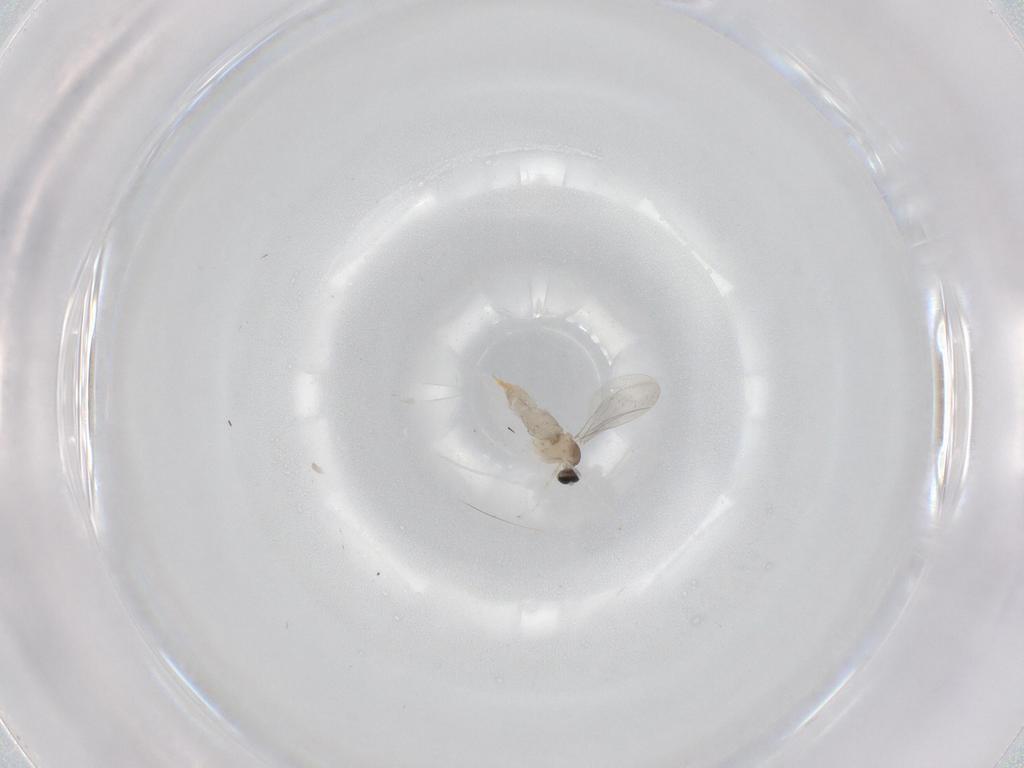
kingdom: Animalia
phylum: Arthropoda
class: Insecta
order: Diptera
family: Cecidomyiidae
